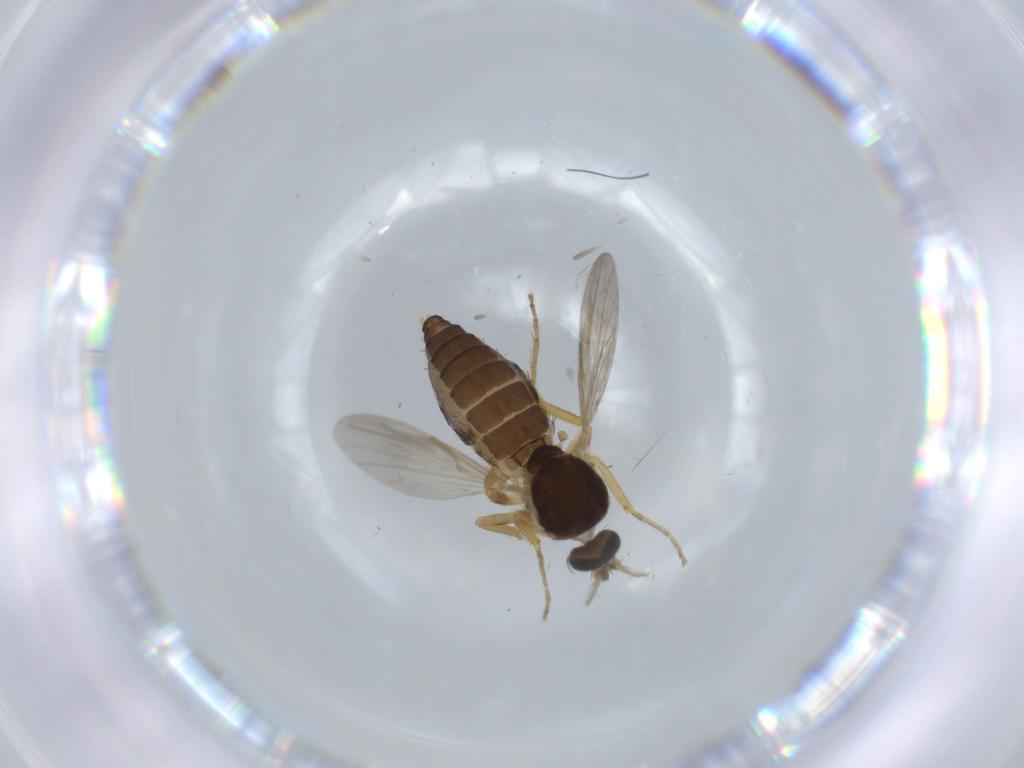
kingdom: Animalia
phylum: Arthropoda
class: Insecta
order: Diptera
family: Ceratopogonidae
